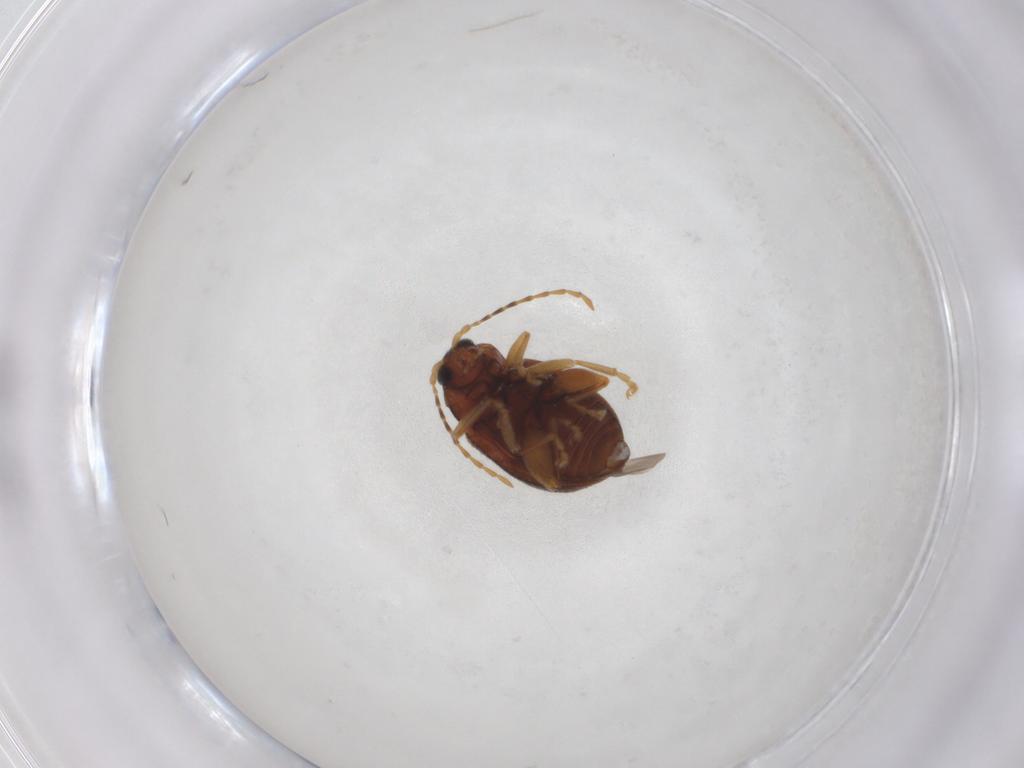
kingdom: Animalia
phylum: Arthropoda
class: Insecta
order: Coleoptera
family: Chrysomelidae
